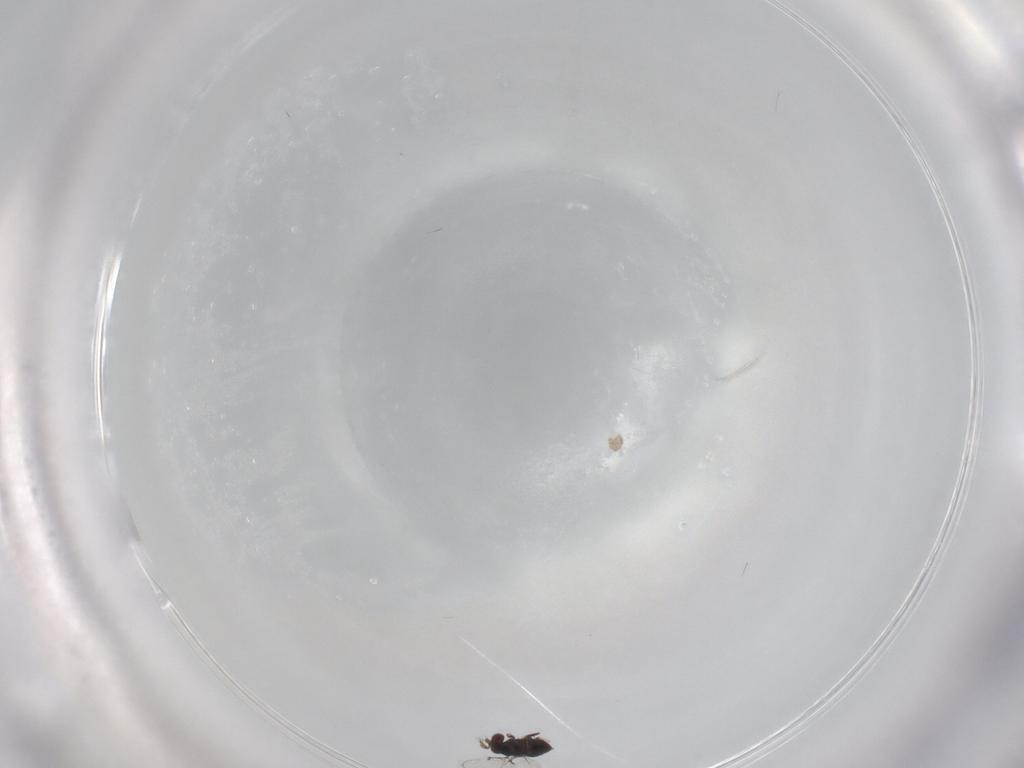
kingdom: Animalia
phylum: Arthropoda
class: Insecta
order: Hymenoptera
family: Trichogrammatidae
